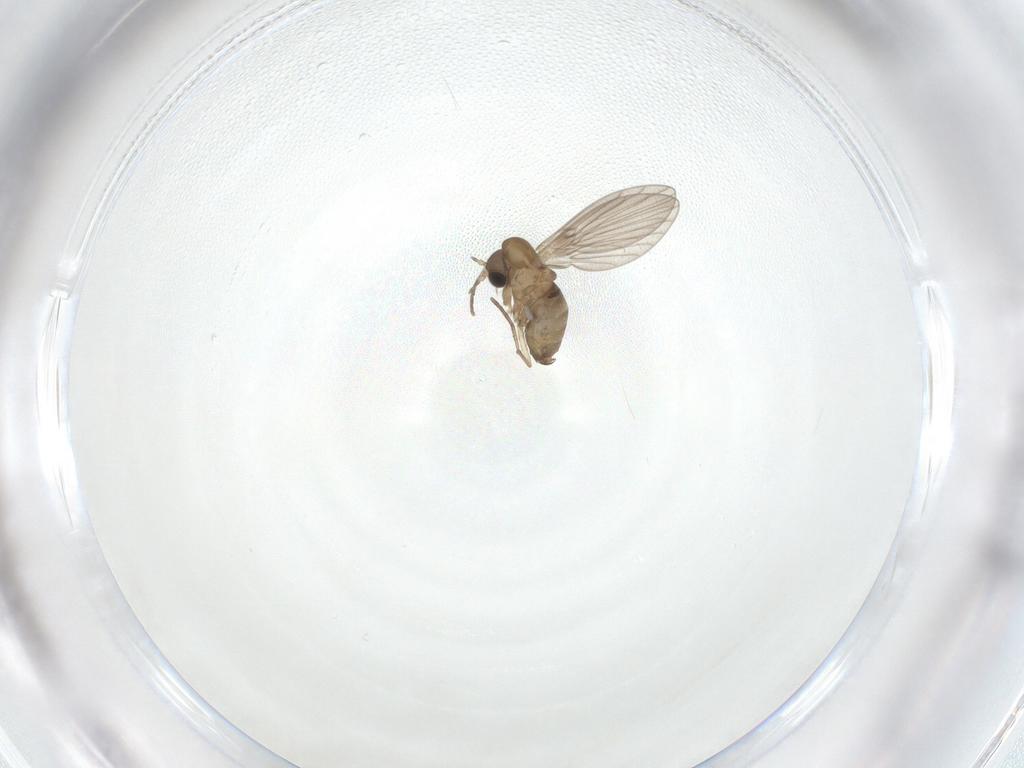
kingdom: Animalia
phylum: Arthropoda
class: Insecta
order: Diptera
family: Psychodidae
